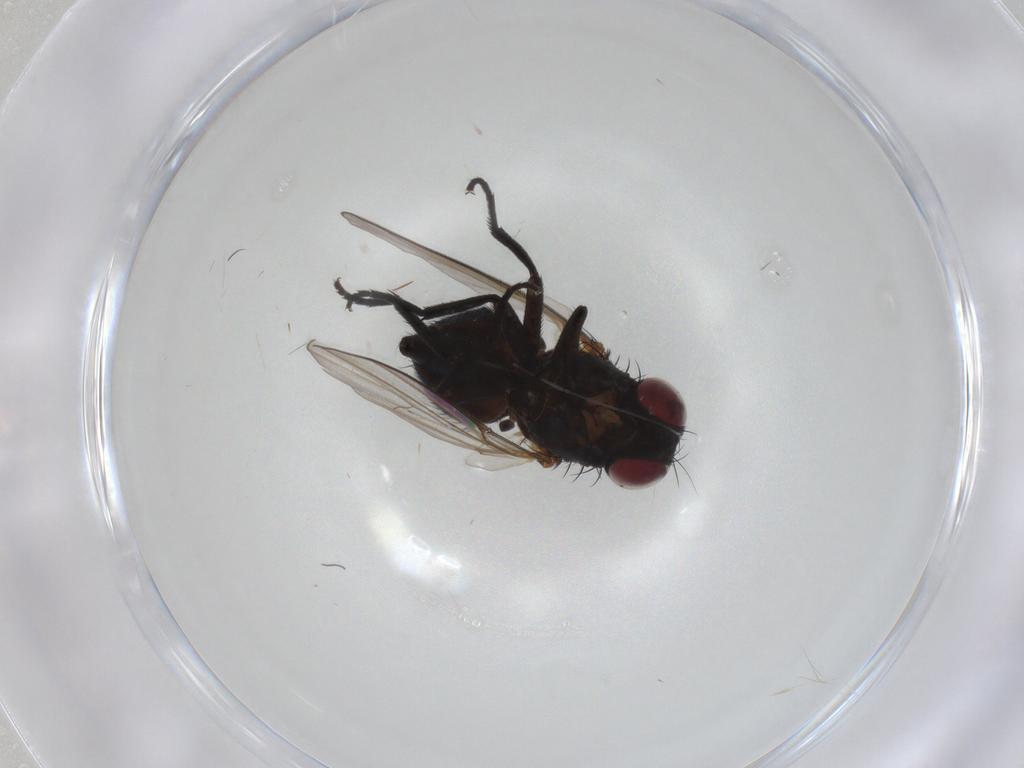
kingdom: Animalia
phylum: Arthropoda
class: Insecta
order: Diptera
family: Agromyzidae
